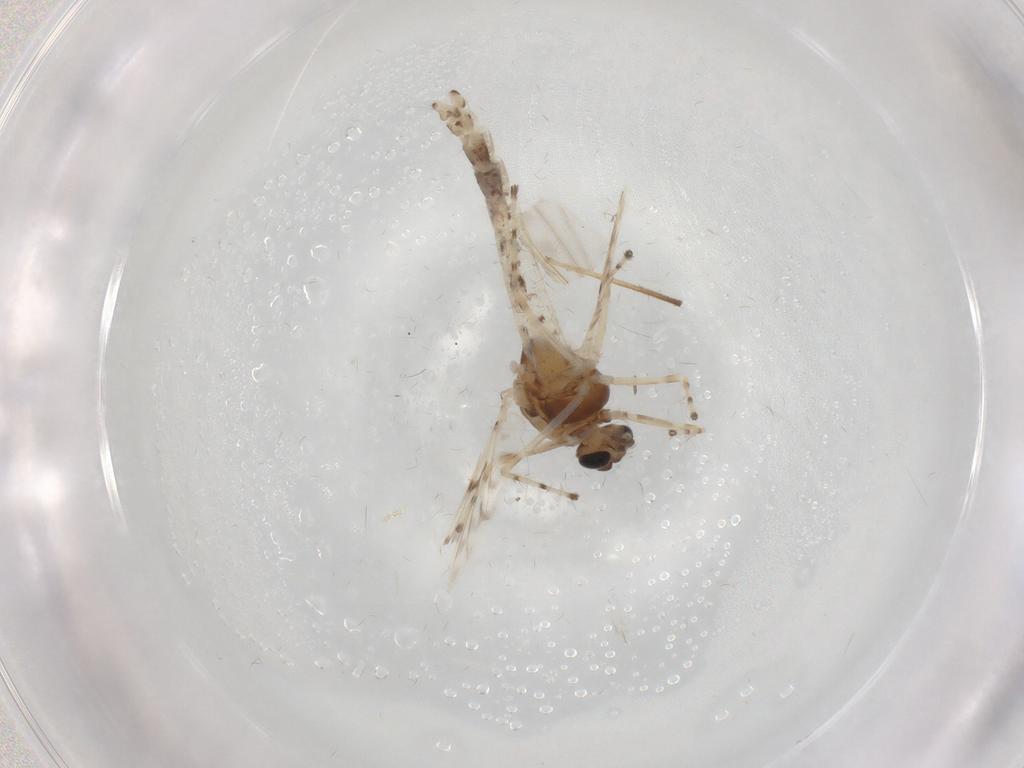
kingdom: Animalia
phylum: Arthropoda
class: Insecta
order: Diptera
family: Chironomidae
